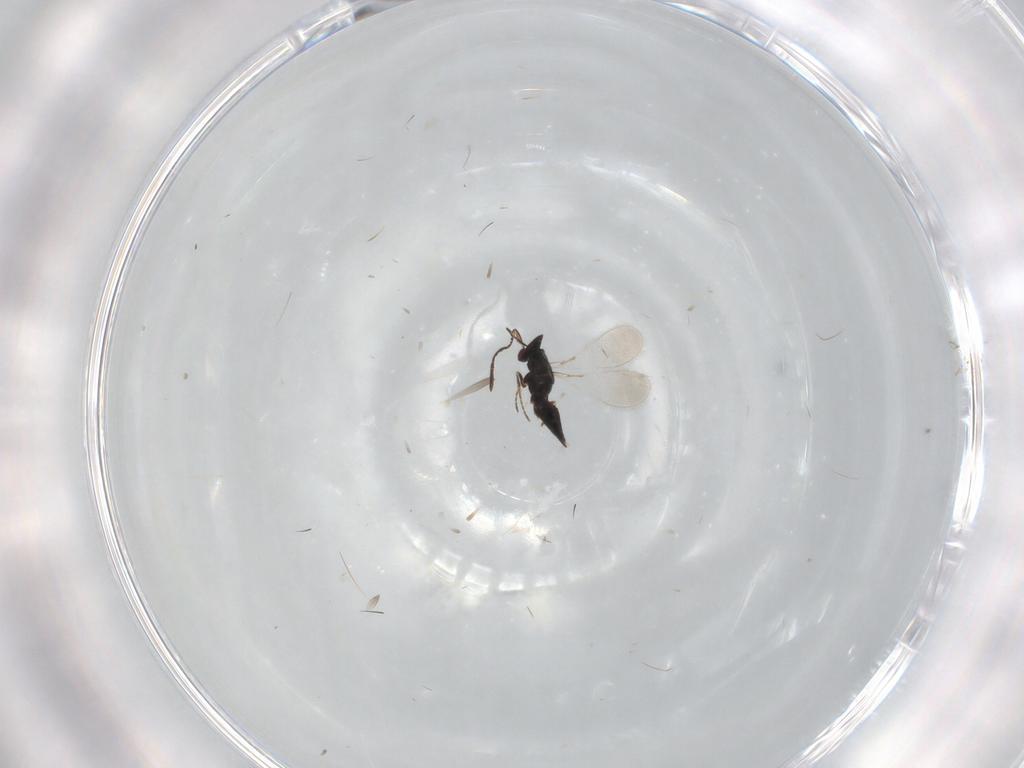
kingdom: Animalia
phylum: Arthropoda
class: Insecta
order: Hymenoptera
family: Mymaridae
